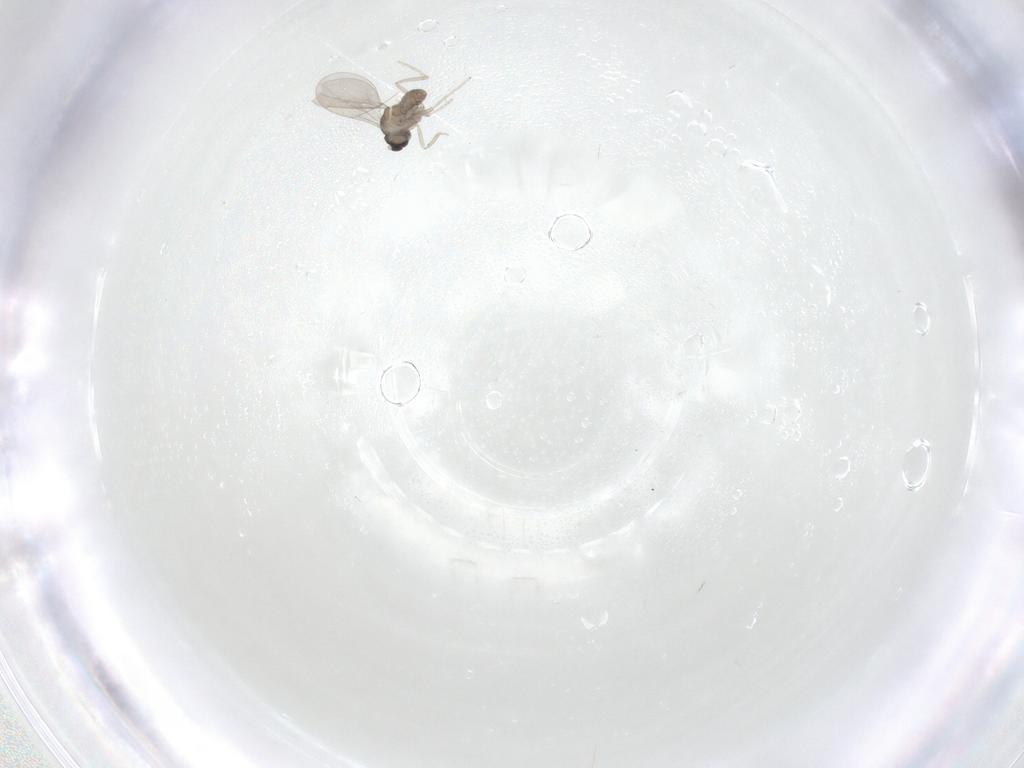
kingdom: Animalia
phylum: Arthropoda
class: Insecta
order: Diptera
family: Cecidomyiidae
